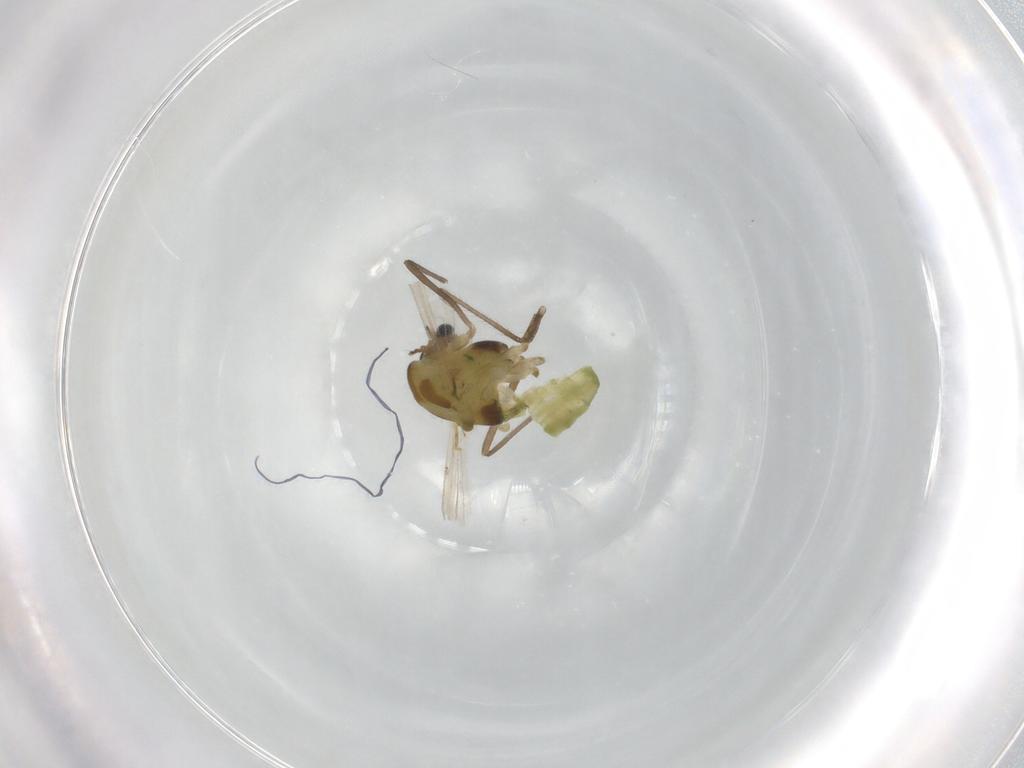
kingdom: Animalia
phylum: Arthropoda
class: Insecta
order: Diptera
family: Chironomidae
